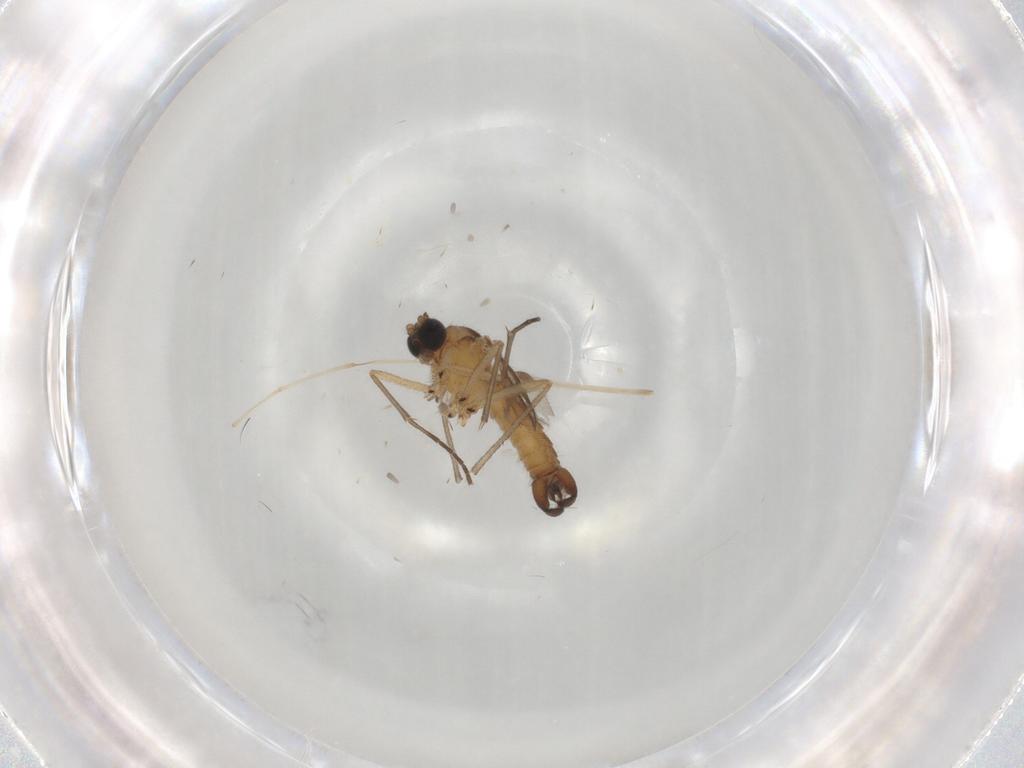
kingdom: Animalia
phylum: Arthropoda
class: Insecta
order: Diptera
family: Sciaridae
